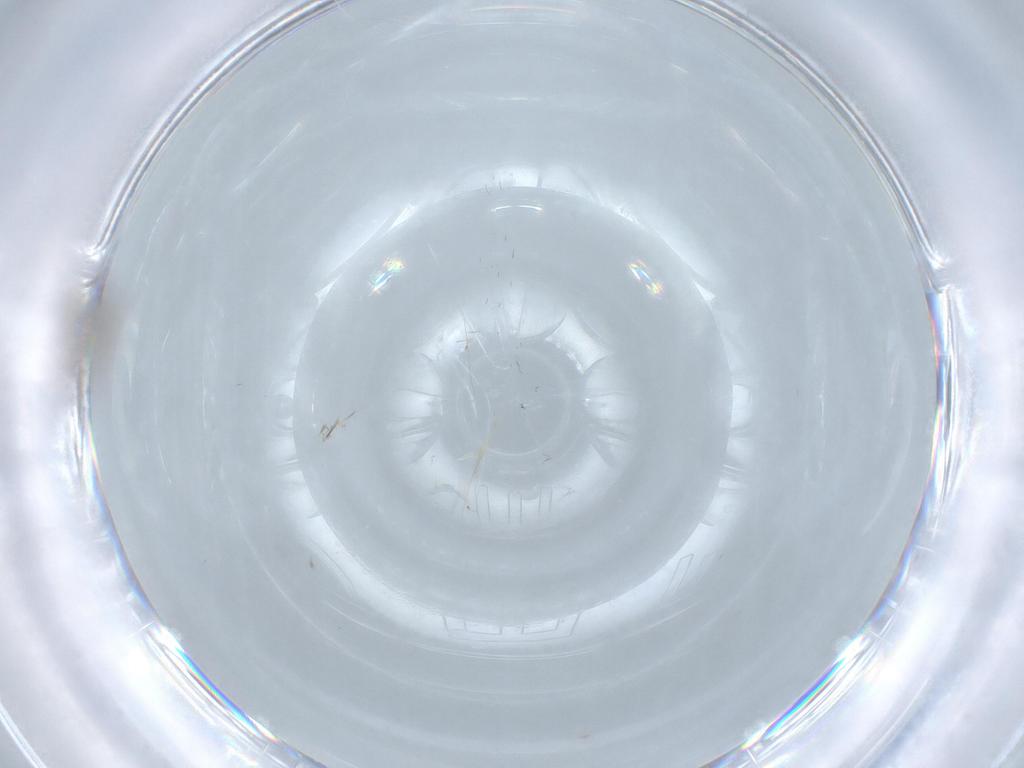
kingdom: Animalia
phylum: Arthropoda
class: Insecta
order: Diptera
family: Cecidomyiidae
